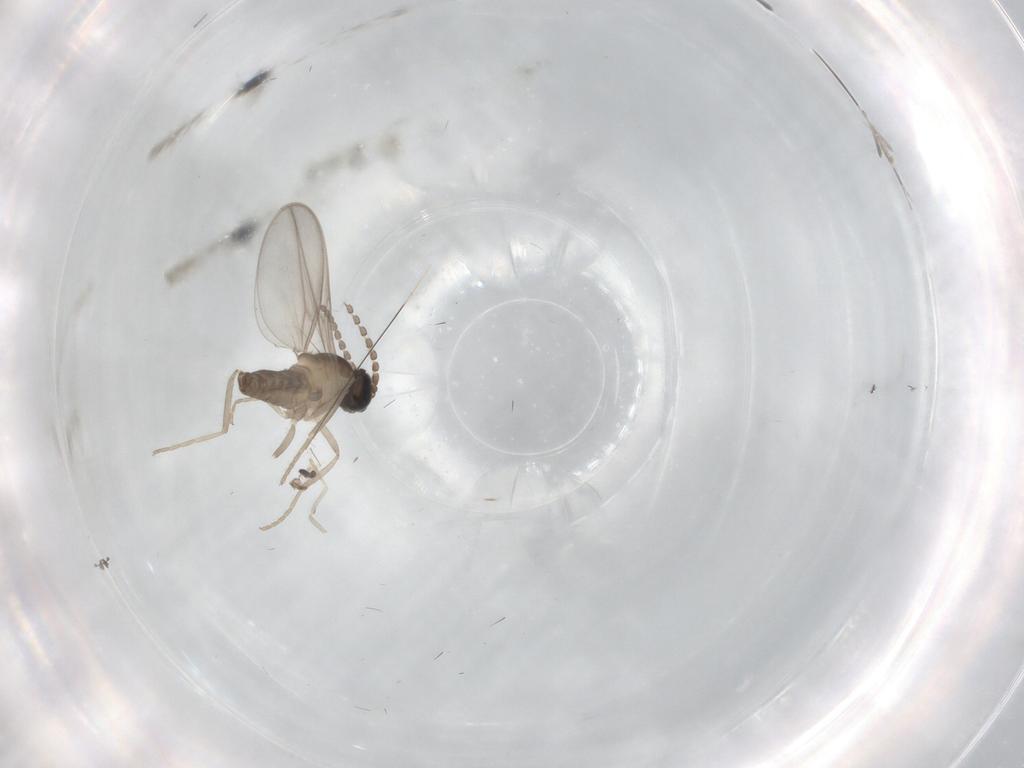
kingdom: Animalia
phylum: Arthropoda
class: Insecta
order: Diptera
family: Cecidomyiidae
